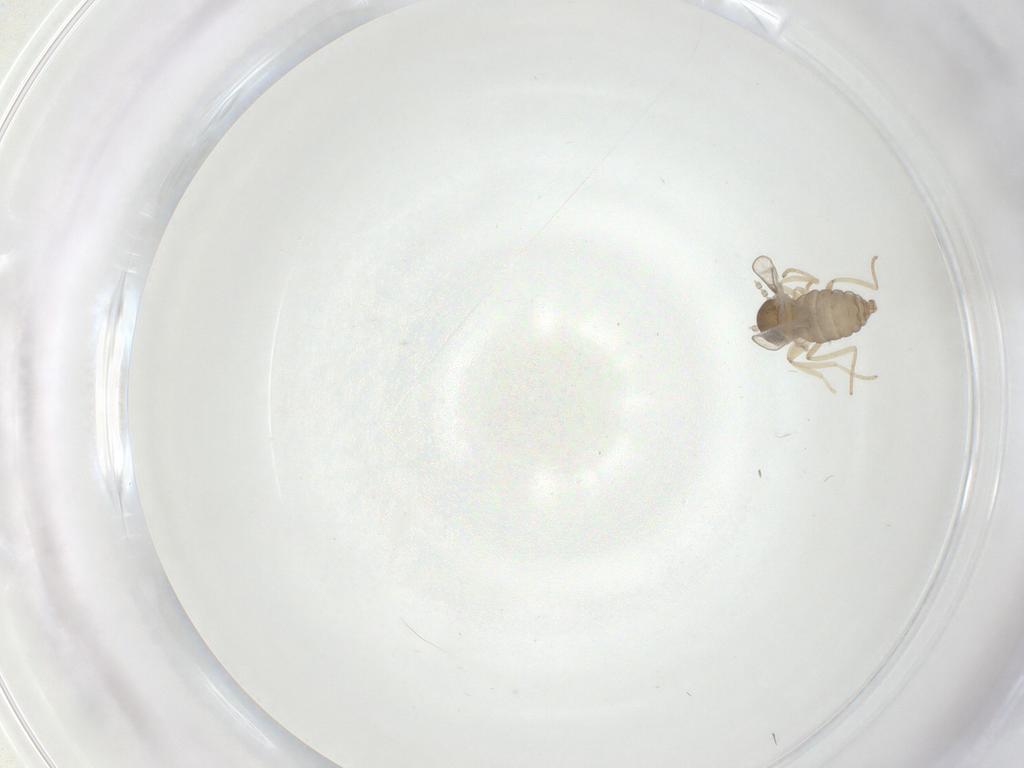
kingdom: Animalia
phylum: Arthropoda
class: Insecta
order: Diptera
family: Cecidomyiidae
